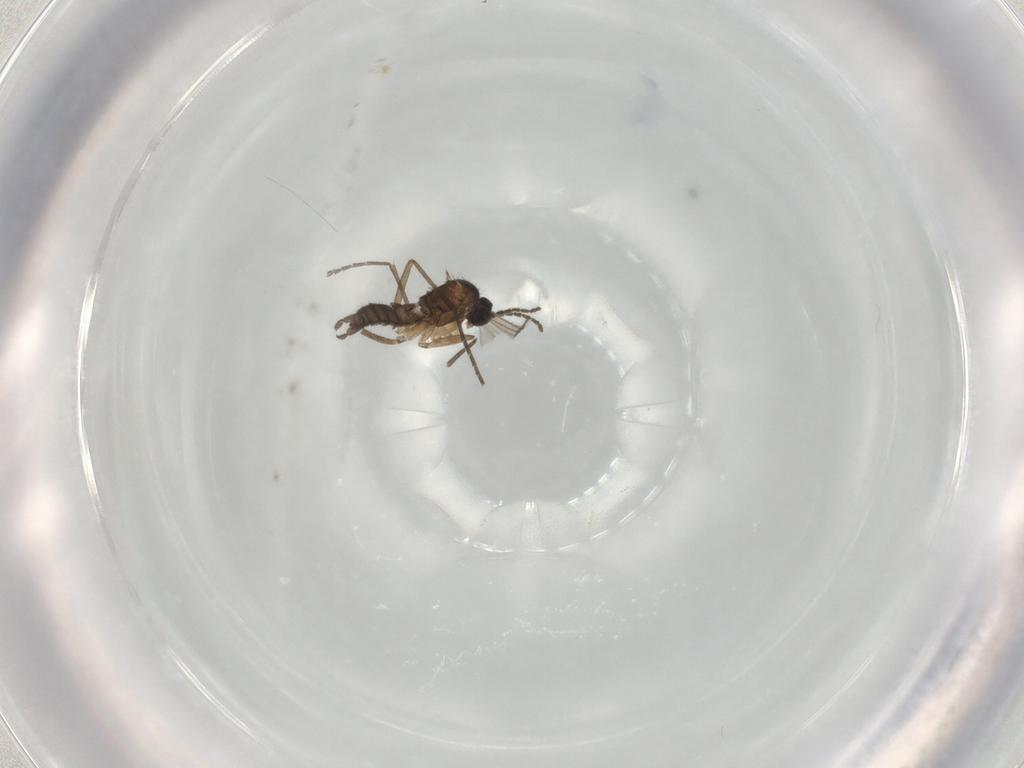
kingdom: Animalia
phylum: Arthropoda
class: Insecta
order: Diptera
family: Sciaridae
